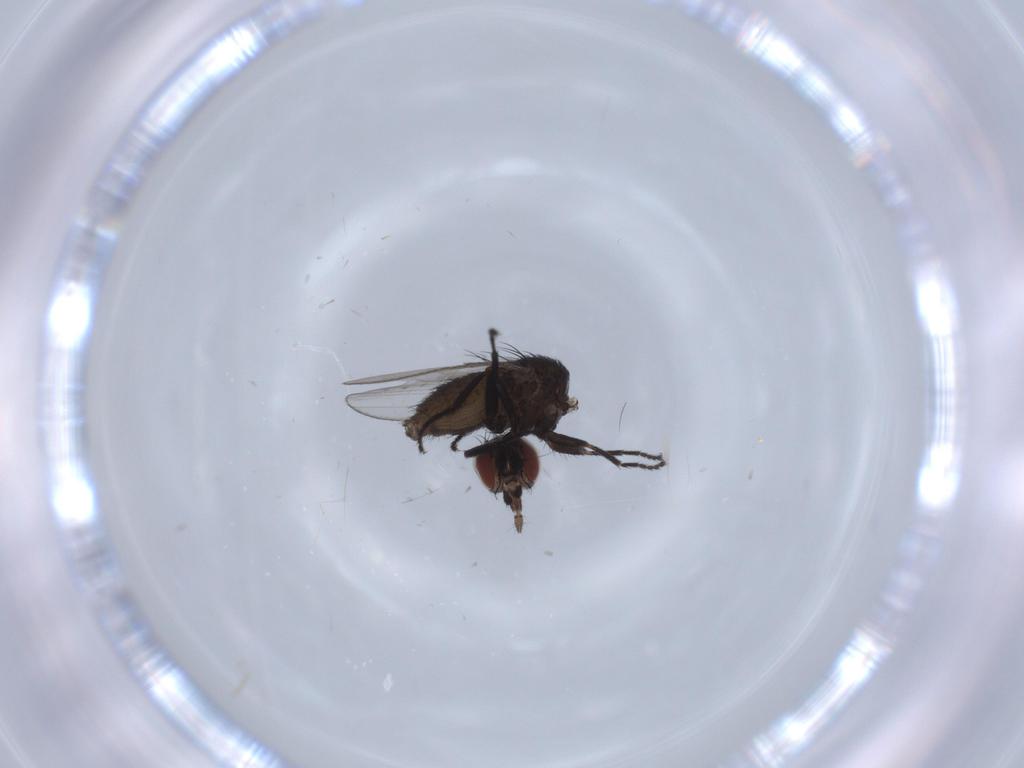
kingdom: Animalia
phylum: Arthropoda
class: Insecta
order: Diptera
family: Milichiidae
